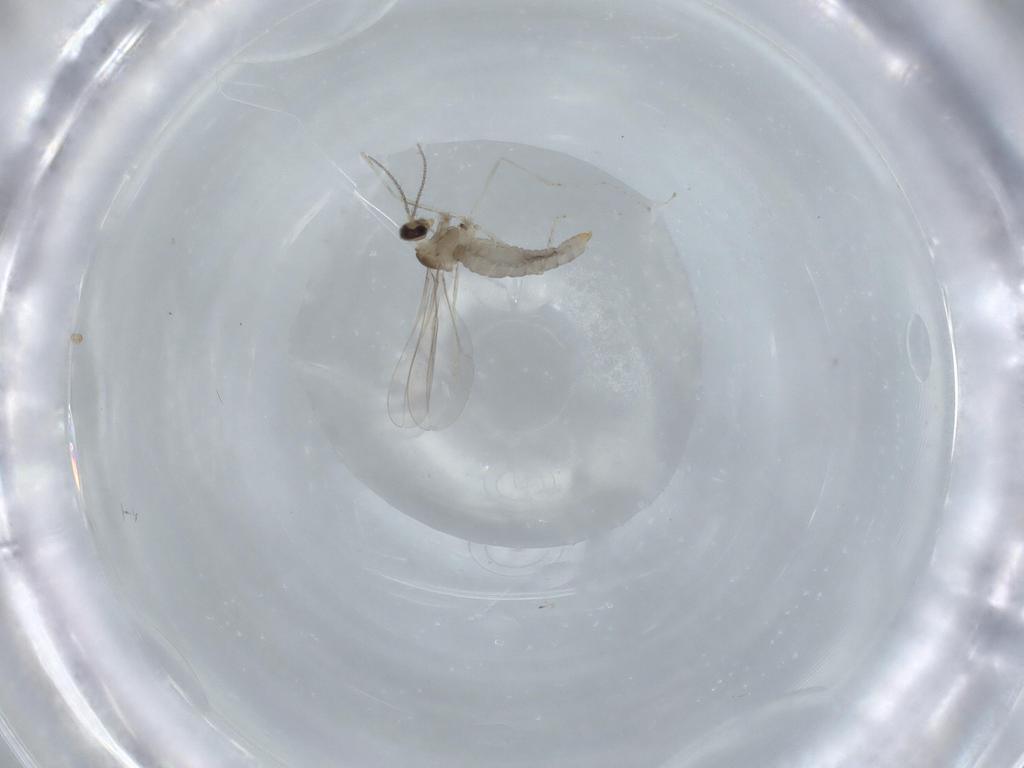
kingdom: Animalia
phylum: Arthropoda
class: Insecta
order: Diptera
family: Cecidomyiidae
